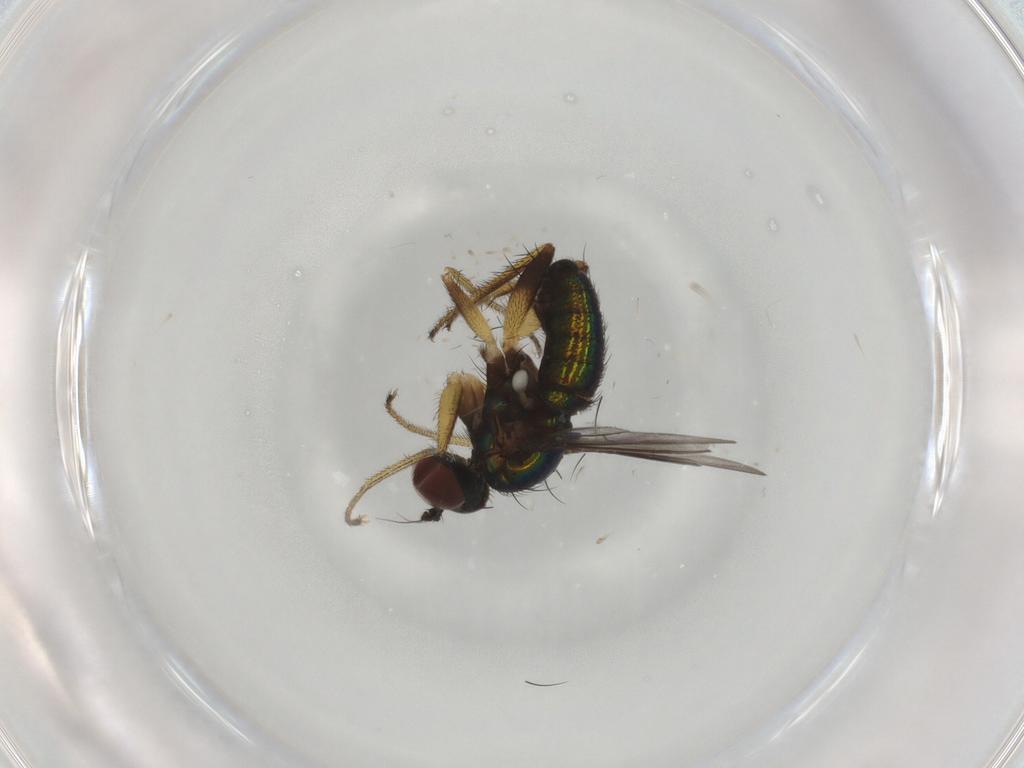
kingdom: Animalia
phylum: Arthropoda
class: Insecta
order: Diptera
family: Dolichopodidae
